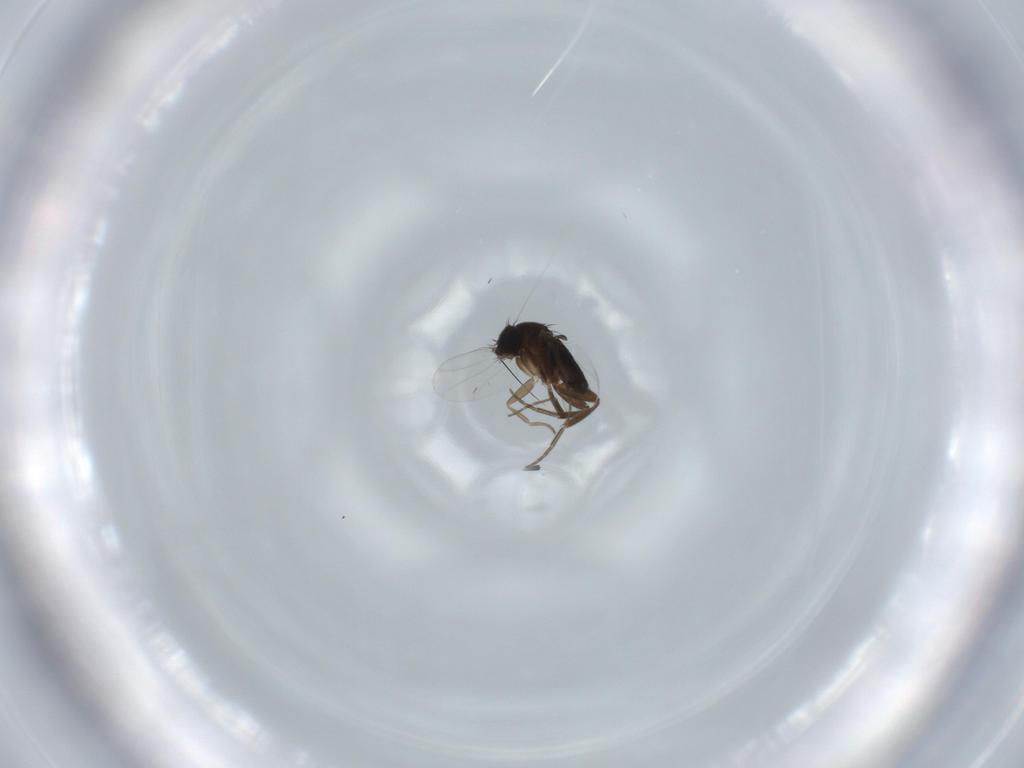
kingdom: Animalia
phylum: Arthropoda
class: Insecta
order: Diptera
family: Phoridae
